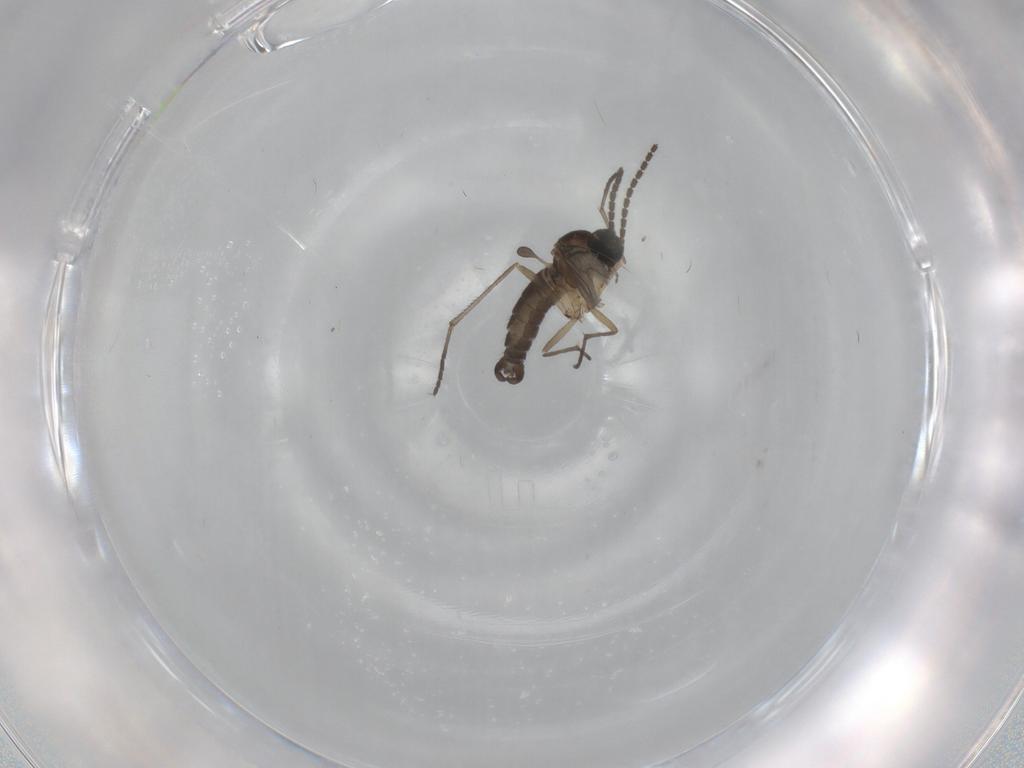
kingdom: Animalia
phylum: Arthropoda
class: Insecta
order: Diptera
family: Sciaridae
